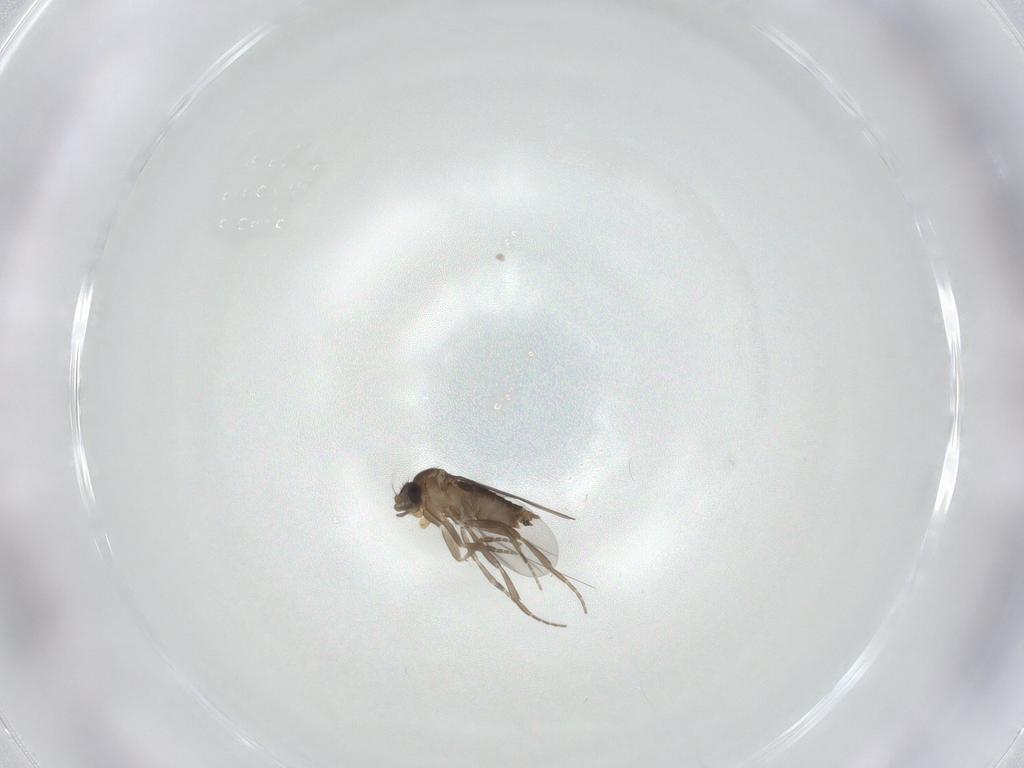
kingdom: Animalia
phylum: Arthropoda
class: Insecta
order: Diptera
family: Phoridae
